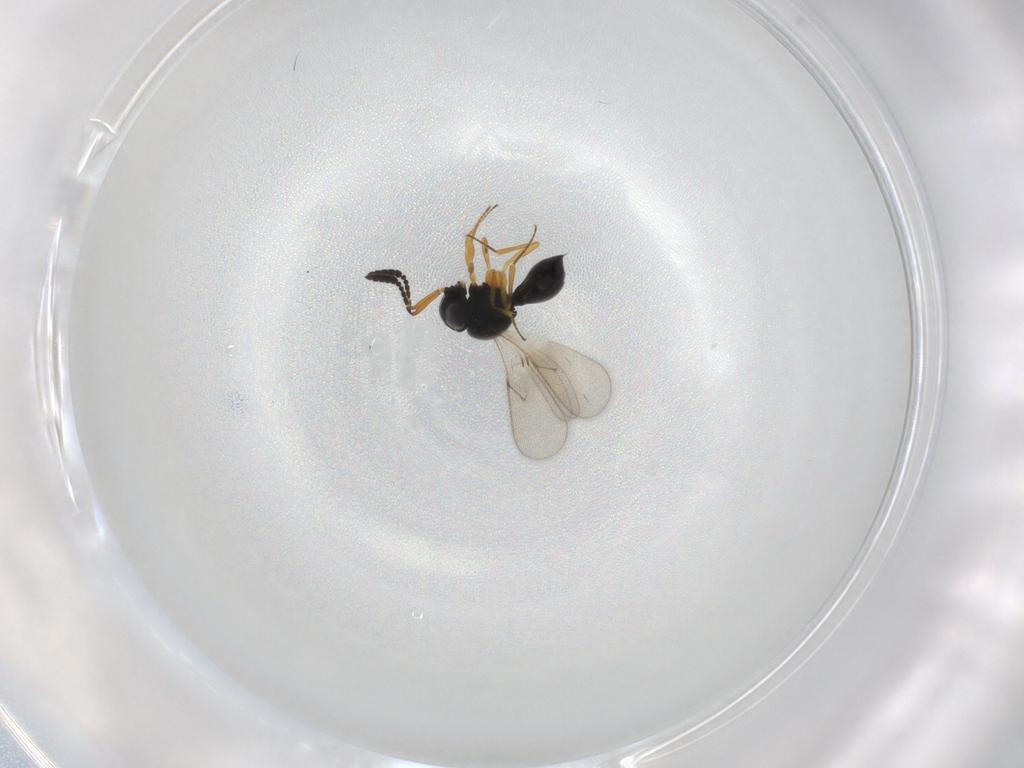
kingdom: Animalia
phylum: Arthropoda
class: Insecta
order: Hymenoptera
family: Scelionidae
